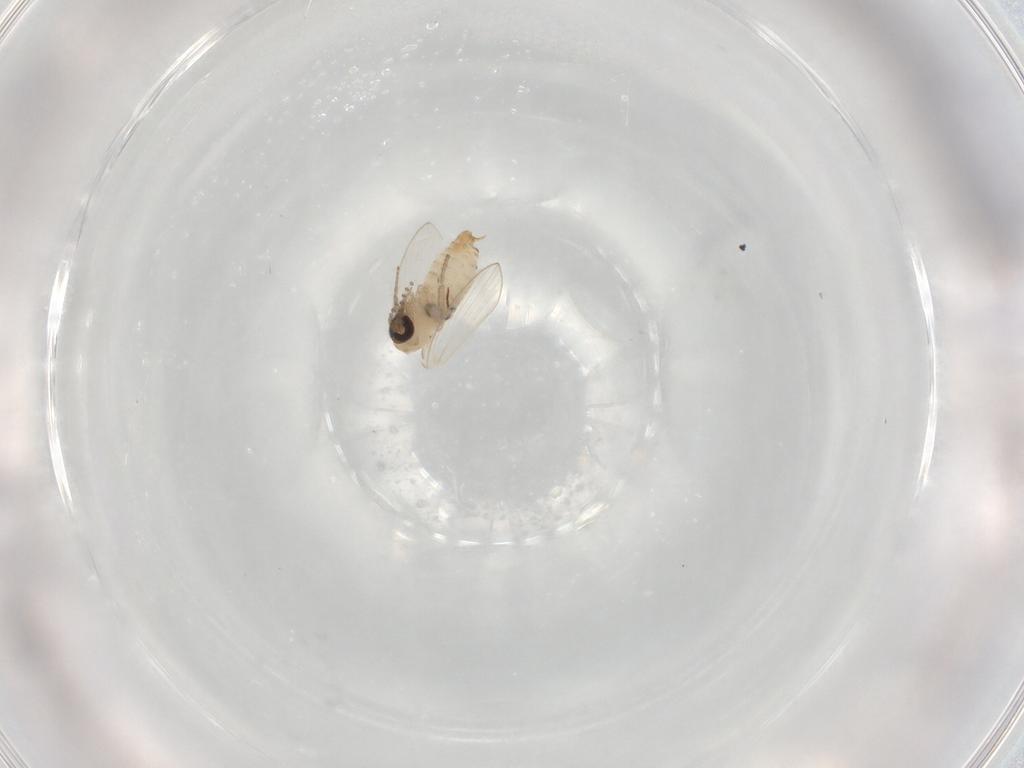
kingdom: Animalia
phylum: Arthropoda
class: Insecta
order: Diptera
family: Psychodidae
